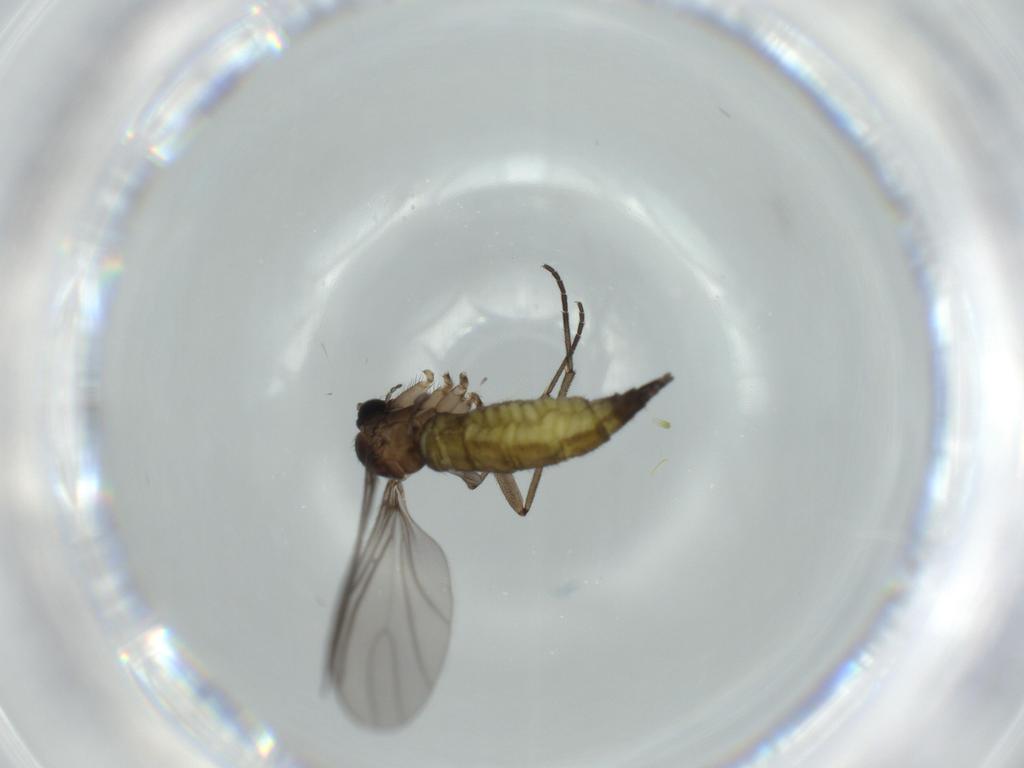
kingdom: Animalia
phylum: Arthropoda
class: Insecta
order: Diptera
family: Sciaridae
